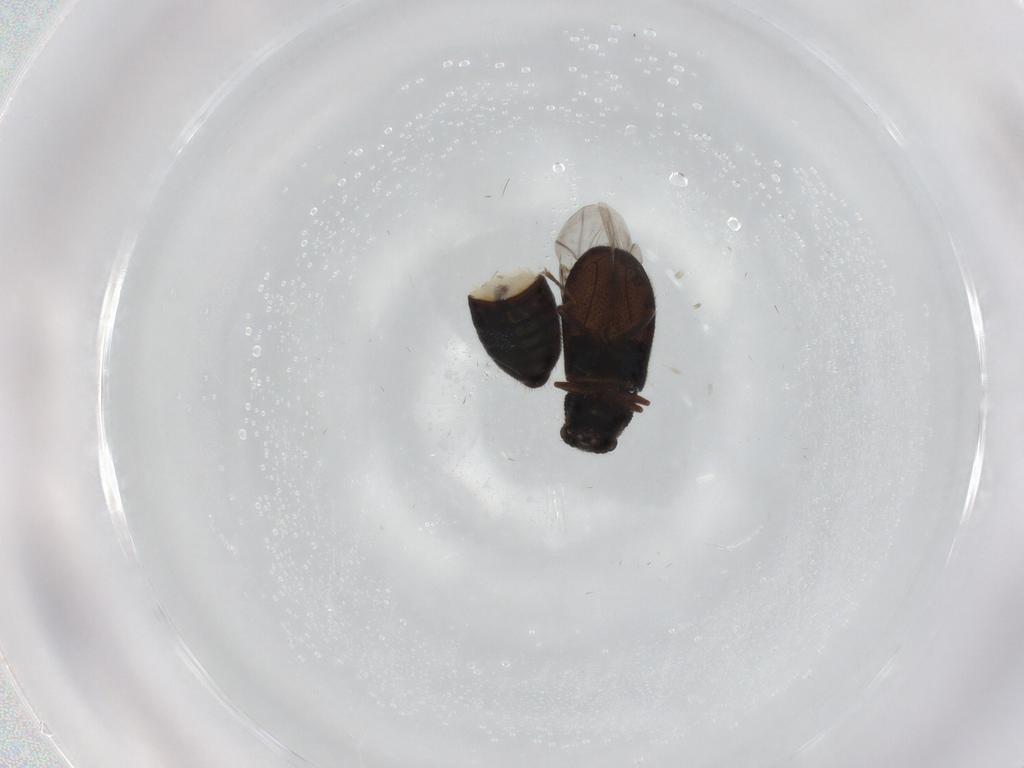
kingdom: Animalia
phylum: Arthropoda
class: Insecta
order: Coleoptera
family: Melyridae
